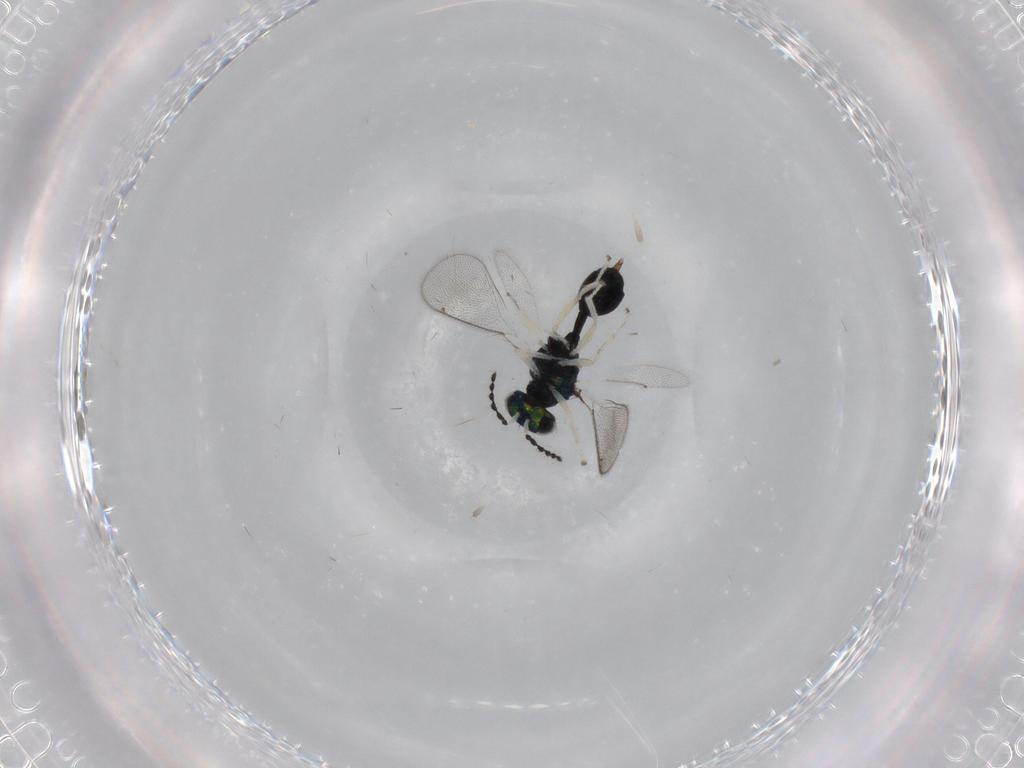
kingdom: Animalia
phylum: Arthropoda
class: Insecta
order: Hymenoptera
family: Eulophidae
